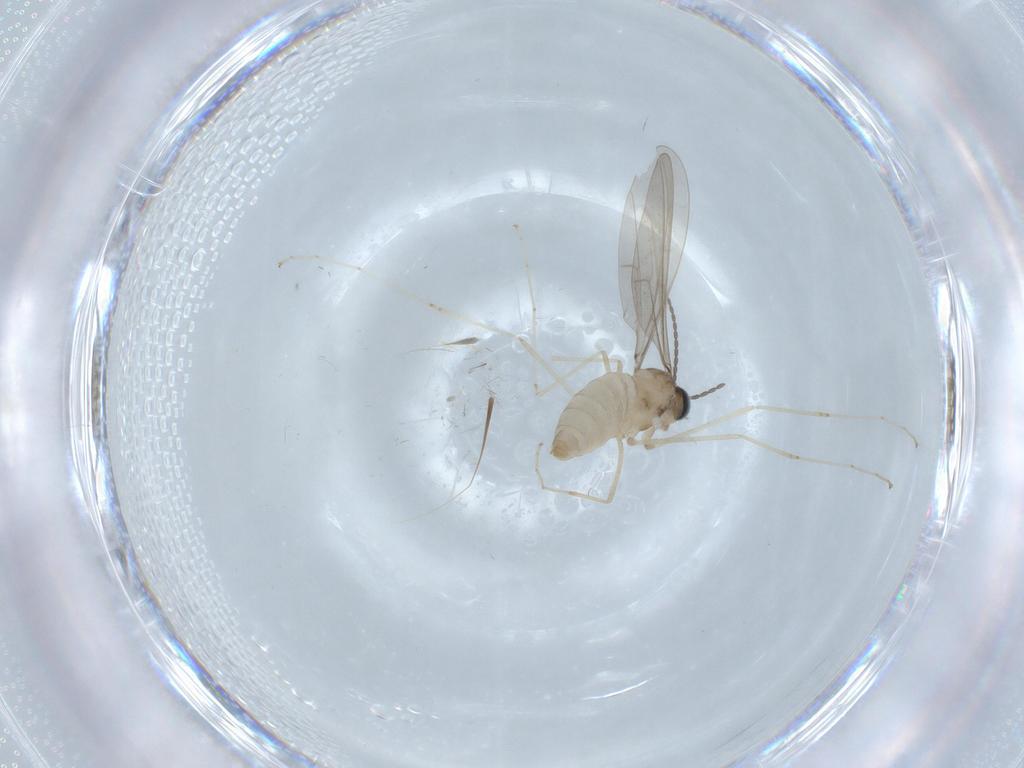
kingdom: Animalia
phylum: Arthropoda
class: Insecta
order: Diptera
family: Cecidomyiidae
